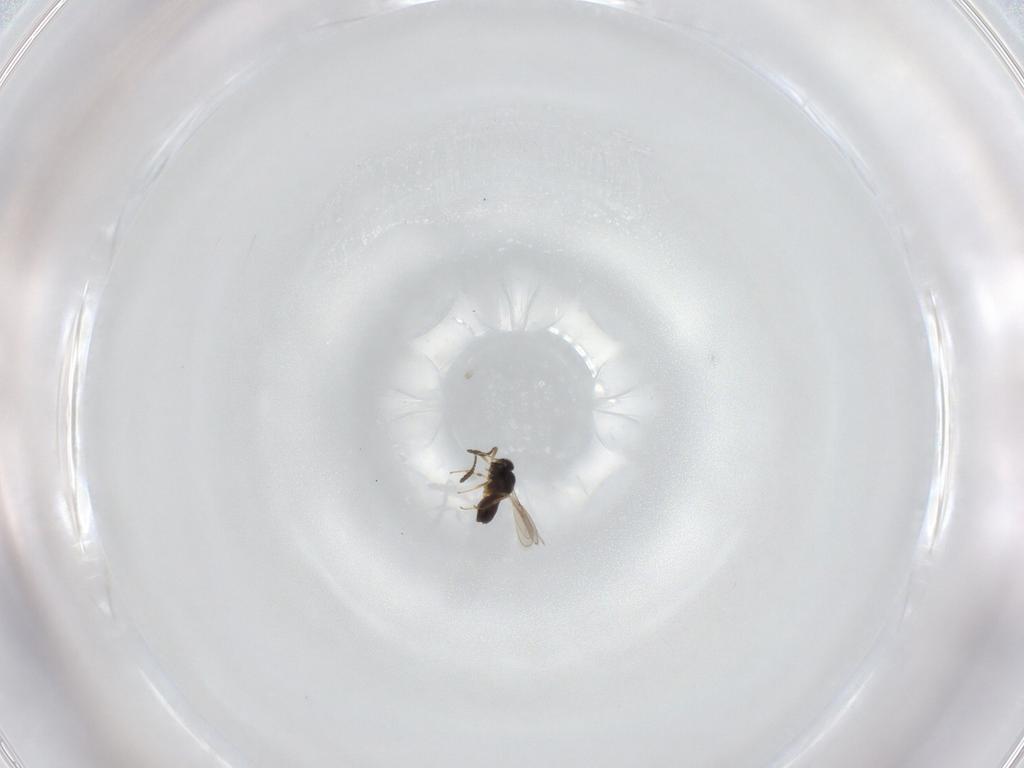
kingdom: Animalia
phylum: Arthropoda
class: Insecta
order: Hymenoptera
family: Scelionidae
